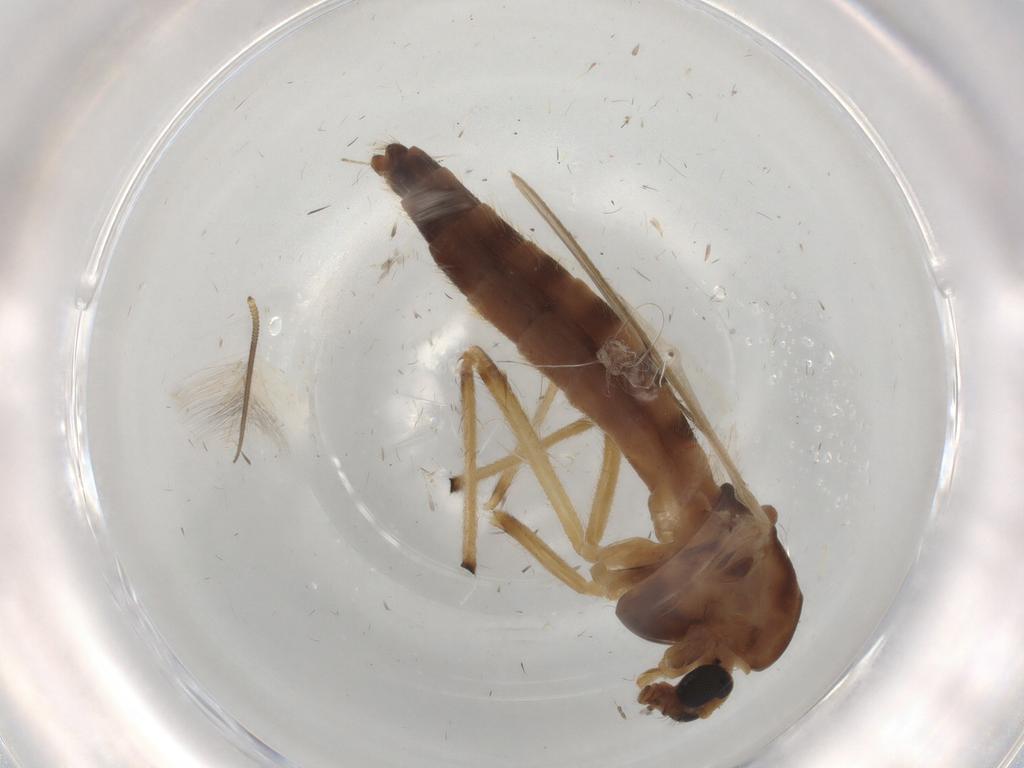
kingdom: Animalia
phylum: Arthropoda
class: Insecta
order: Diptera
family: Chironomidae
